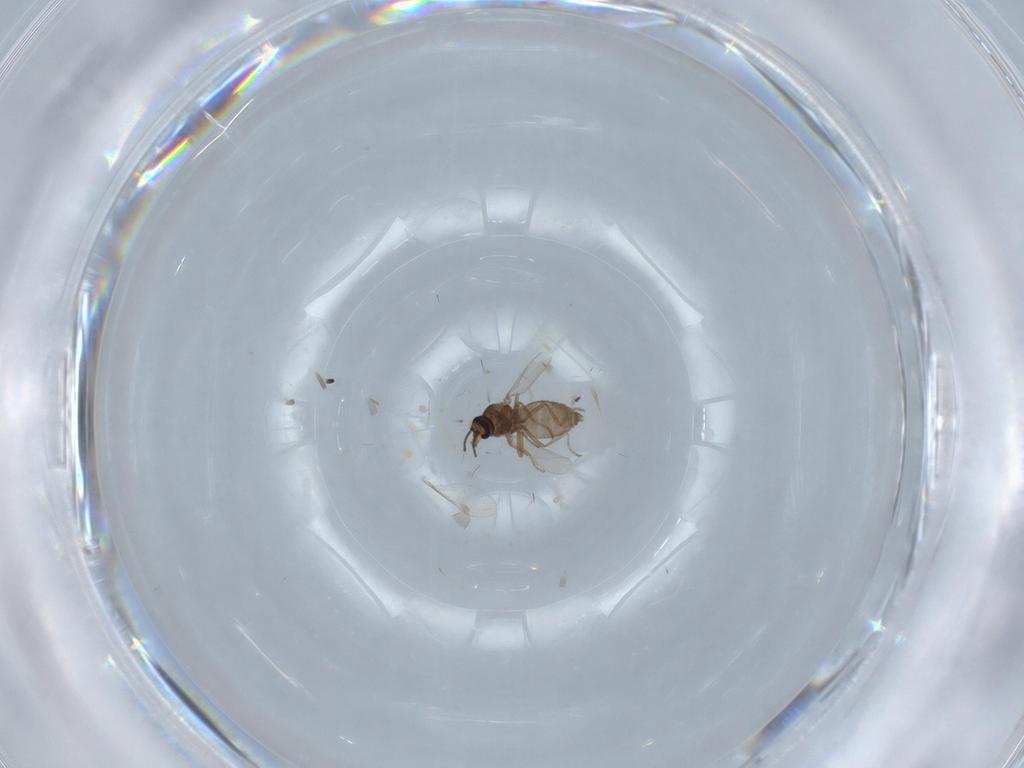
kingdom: Animalia
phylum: Arthropoda
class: Insecta
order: Diptera
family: Ceratopogonidae
